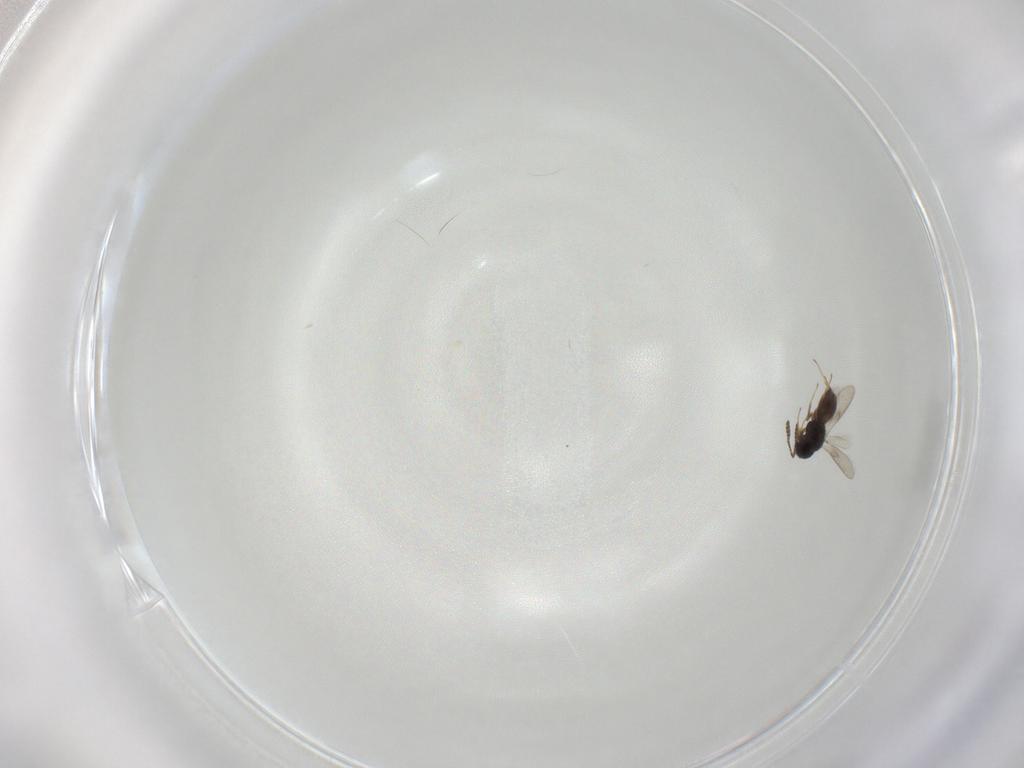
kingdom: Animalia
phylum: Arthropoda
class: Insecta
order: Hymenoptera
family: Scelionidae
